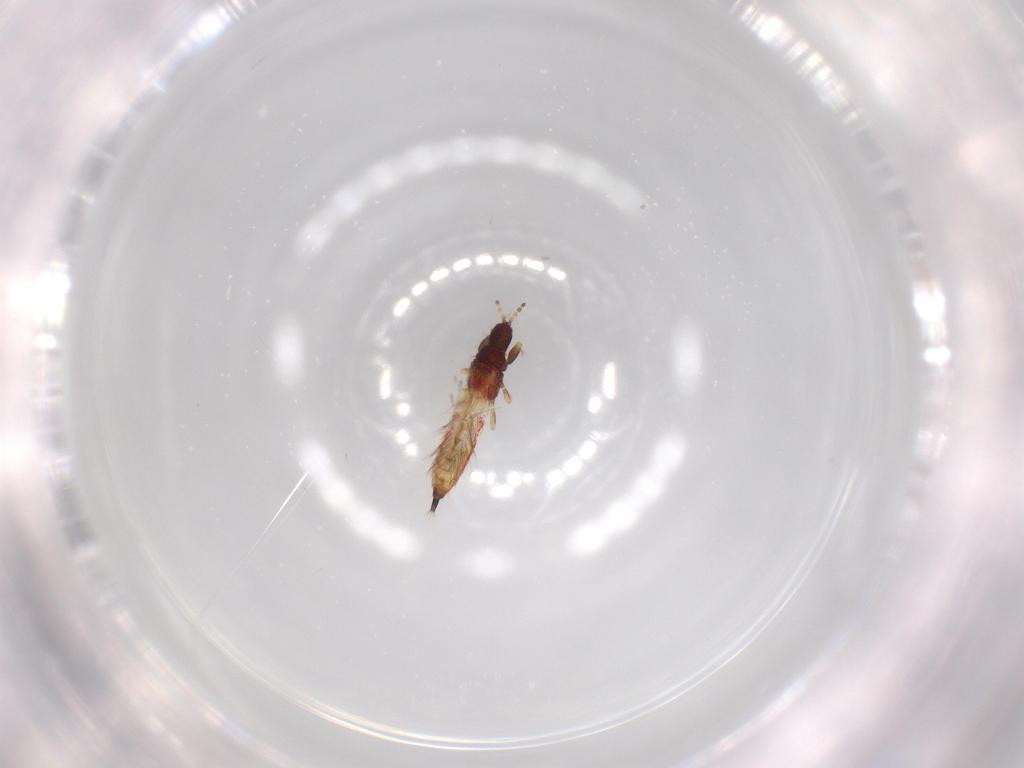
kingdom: Animalia
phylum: Arthropoda
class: Insecta
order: Thysanoptera
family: Phlaeothripidae
